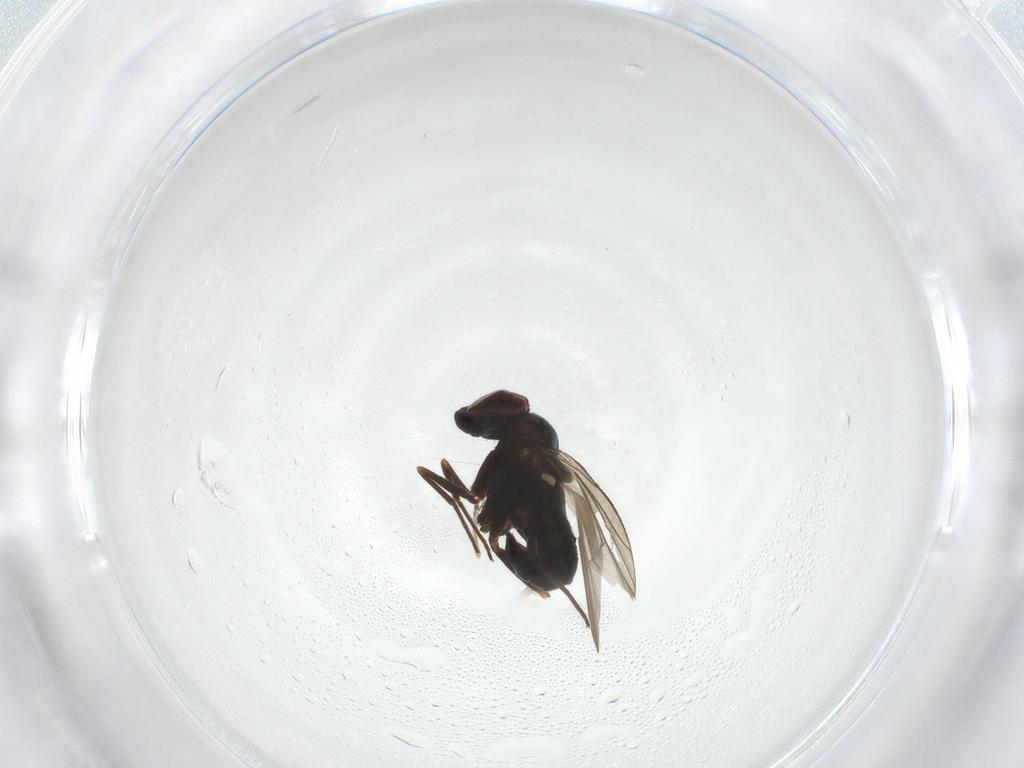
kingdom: Animalia
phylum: Arthropoda
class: Insecta
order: Diptera
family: Chloropidae
